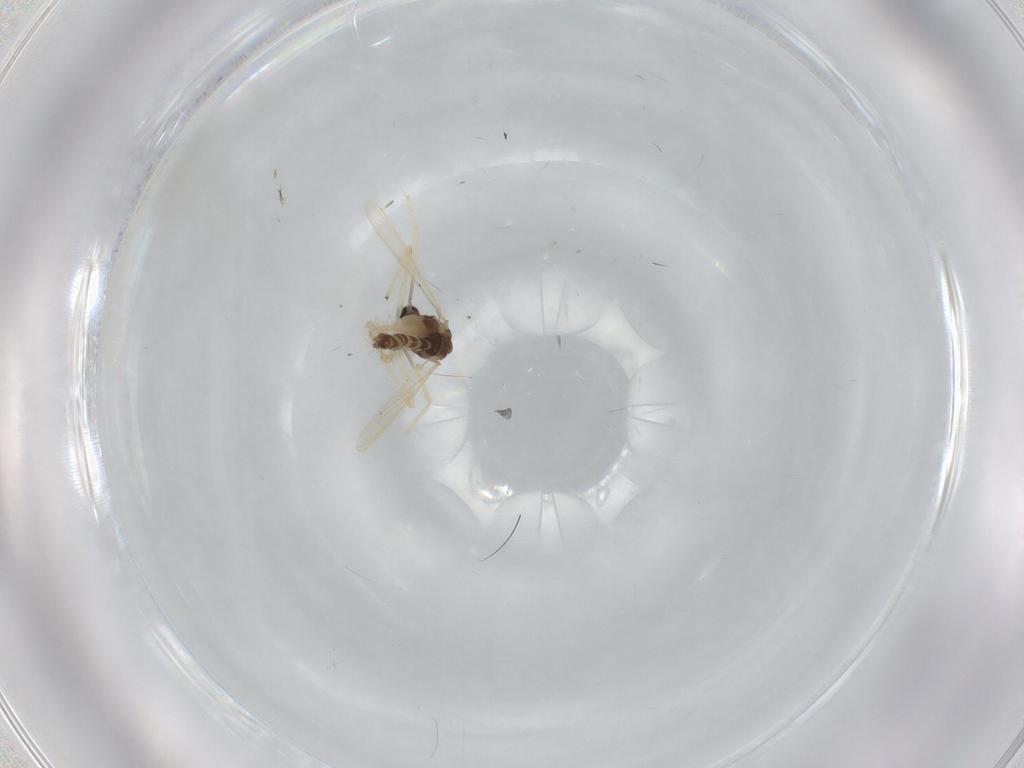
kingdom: Animalia
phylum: Arthropoda
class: Insecta
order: Diptera
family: Chironomidae
